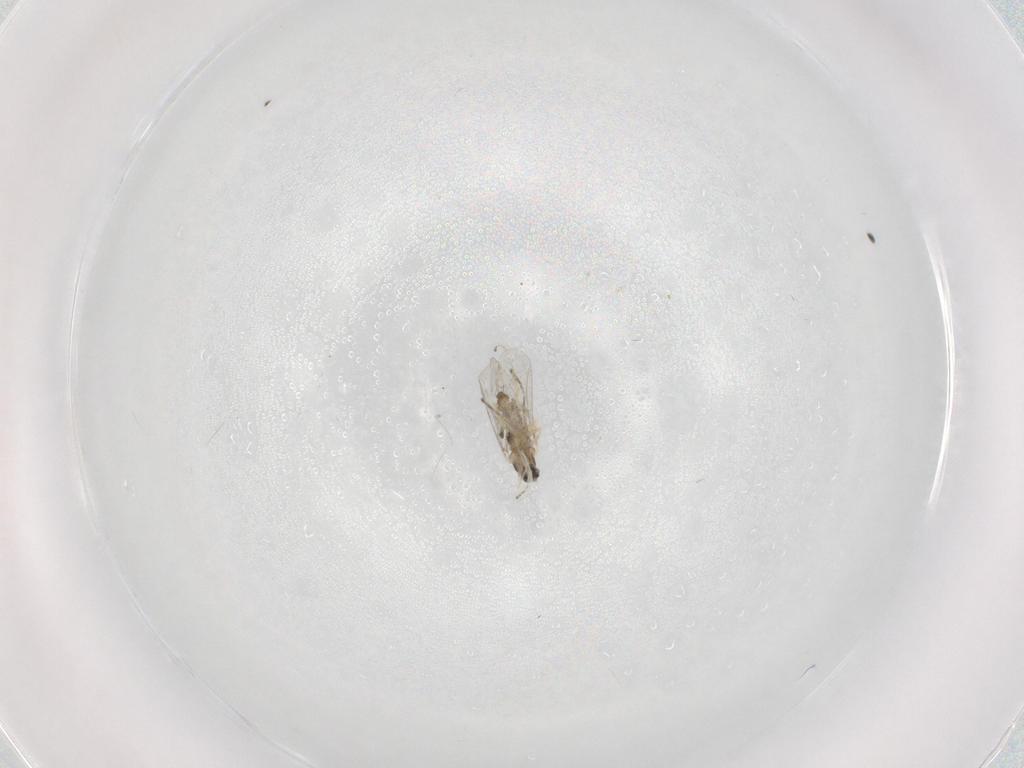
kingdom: Animalia
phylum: Arthropoda
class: Insecta
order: Diptera
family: Cecidomyiidae
